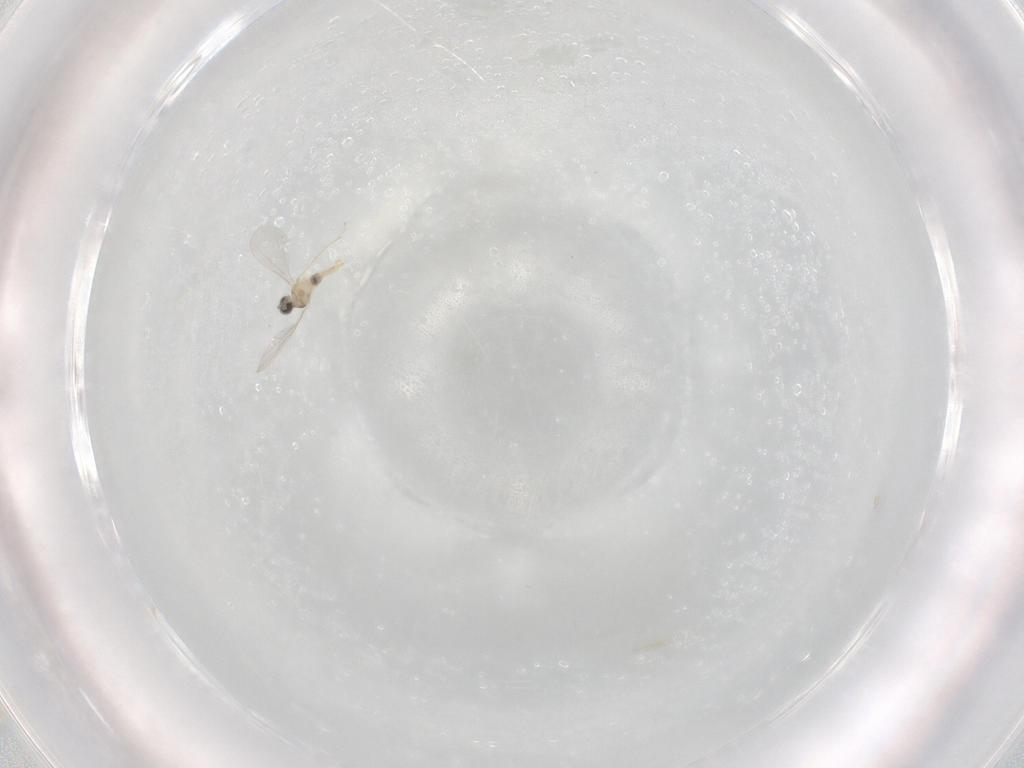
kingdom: Animalia
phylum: Arthropoda
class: Insecta
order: Diptera
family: Cecidomyiidae
